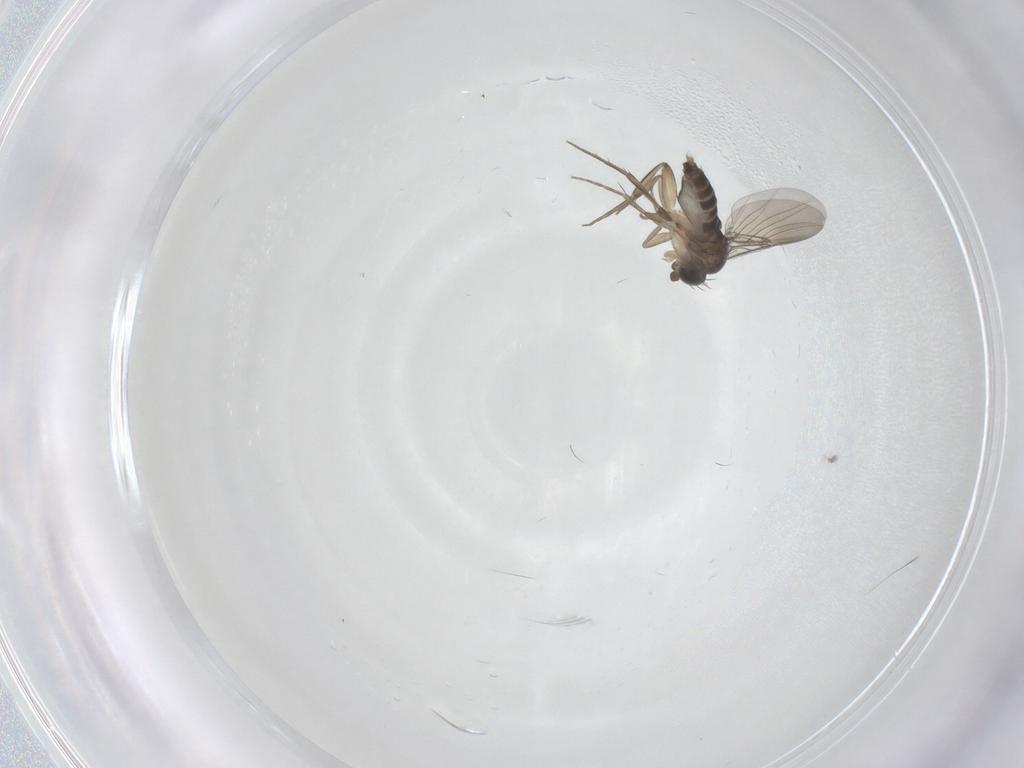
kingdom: Animalia
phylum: Arthropoda
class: Insecta
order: Diptera
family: Phoridae
